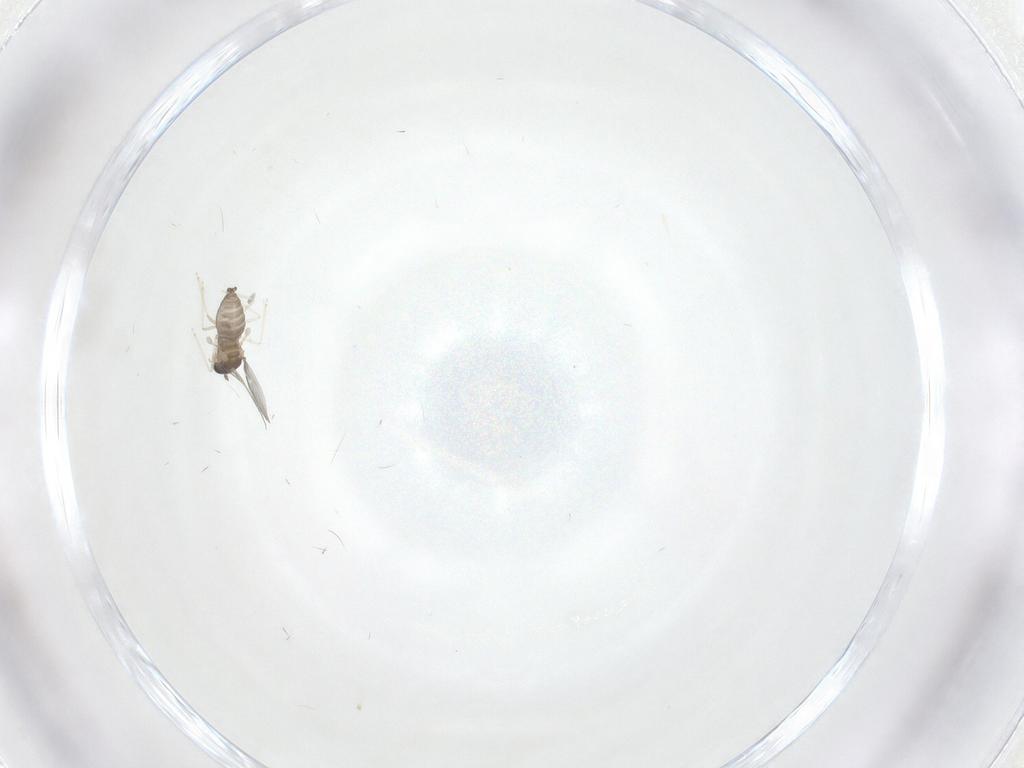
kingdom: Animalia
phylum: Arthropoda
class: Insecta
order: Diptera
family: Cecidomyiidae
